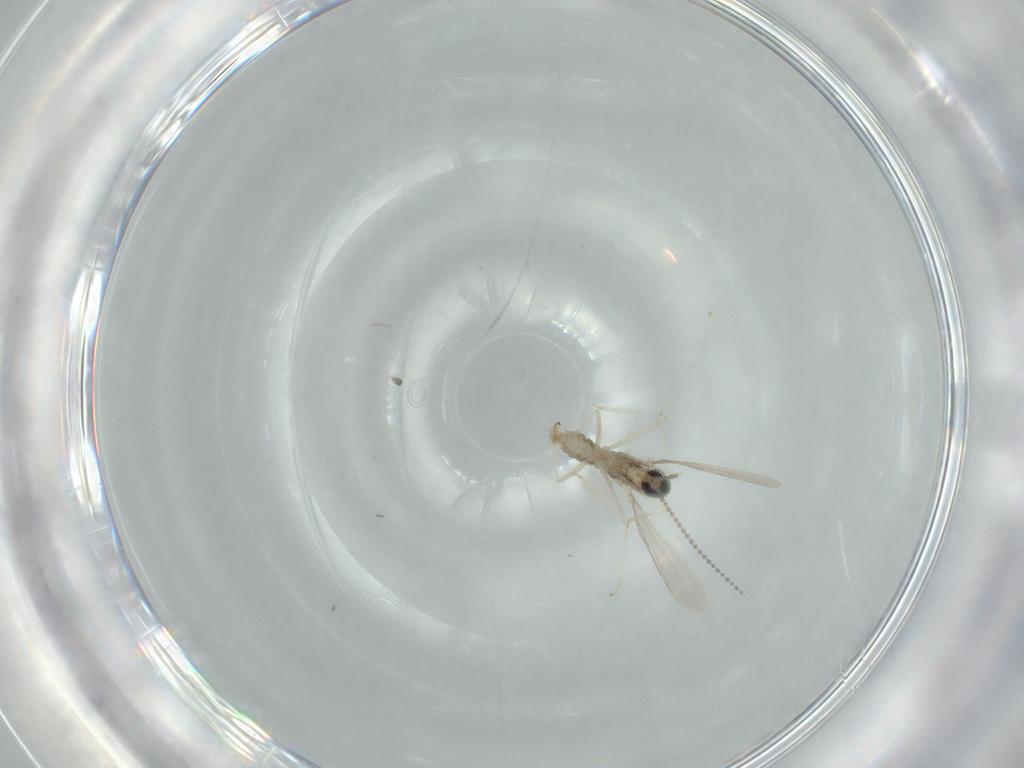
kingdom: Animalia
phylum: Arthropoda
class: Insecta
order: Diptera
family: Cecidomyiidae
